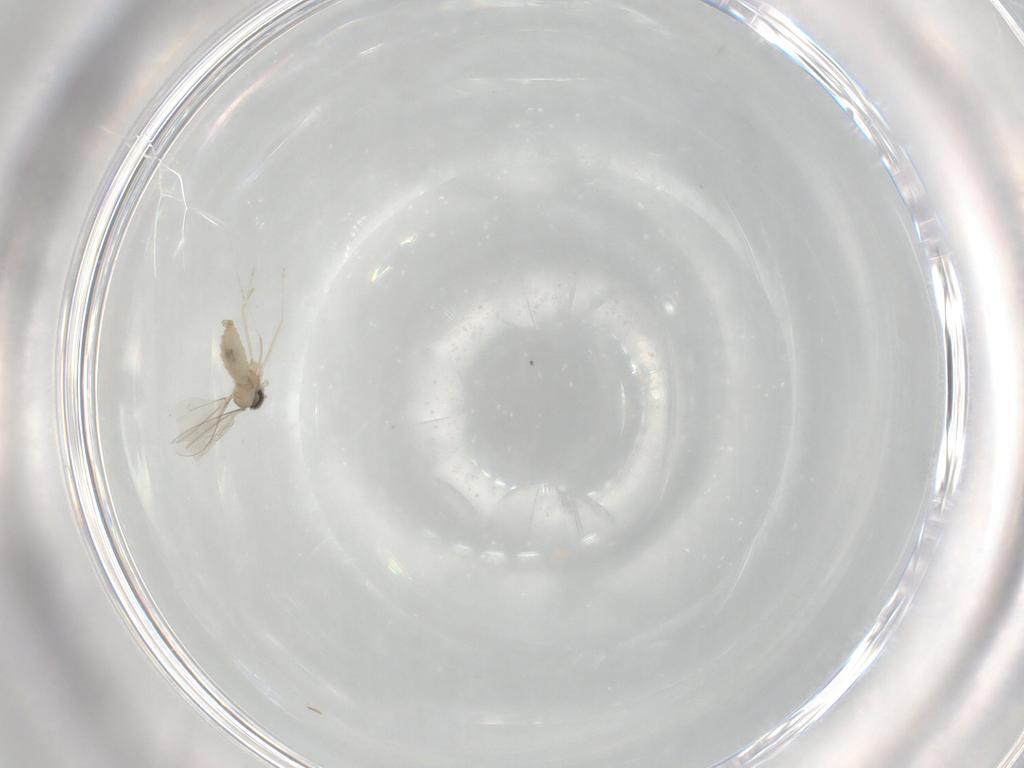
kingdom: Animalia
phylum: Arthropoda
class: Insecta
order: Diptera
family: Cecidomyiidae
